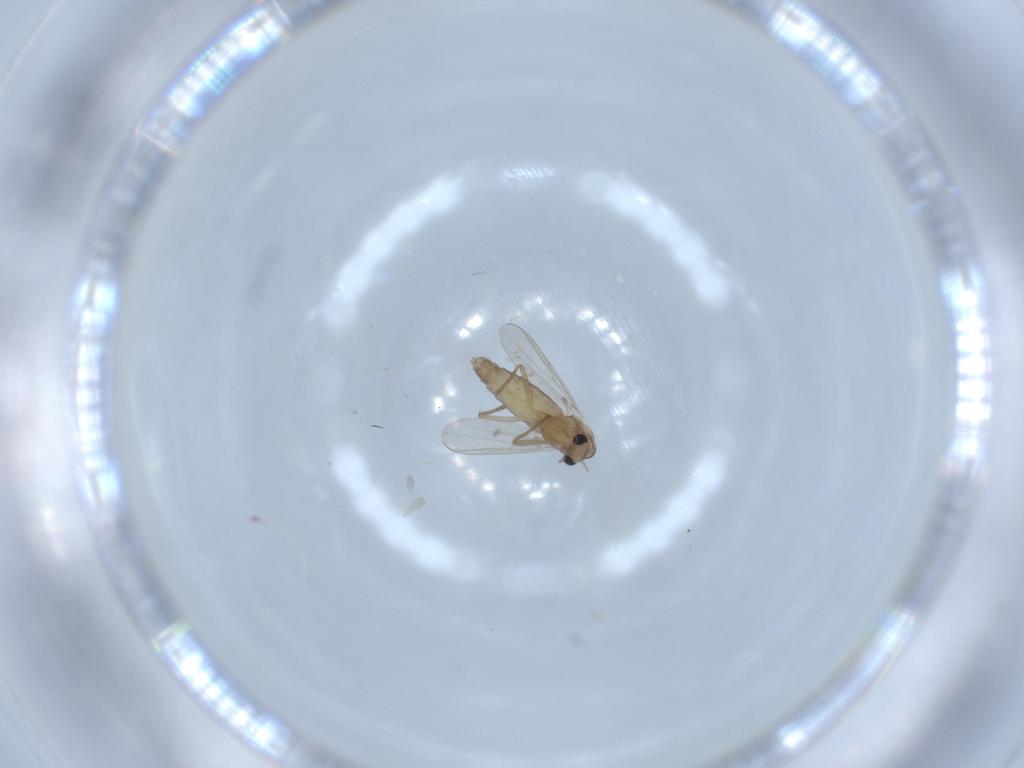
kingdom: Animalia
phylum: Arthropoda
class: Insecta
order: Diptera
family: Chironomidae
